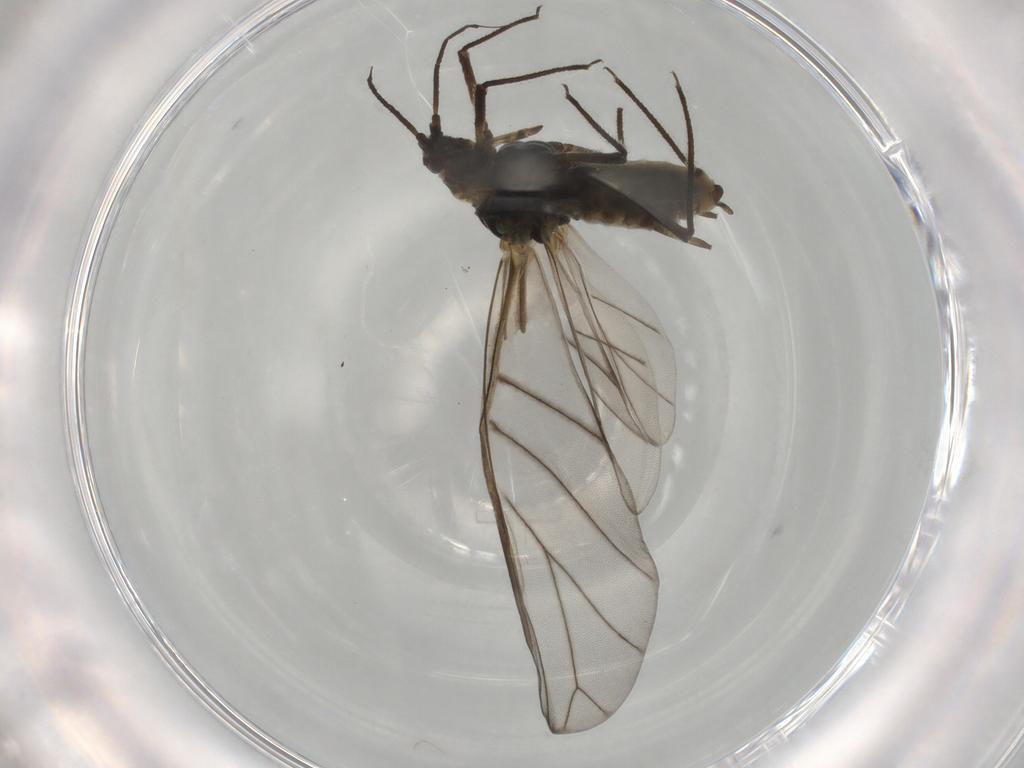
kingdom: Animalia
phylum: Arthropoda
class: Insecta
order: Hemiptera
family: Aphididae
